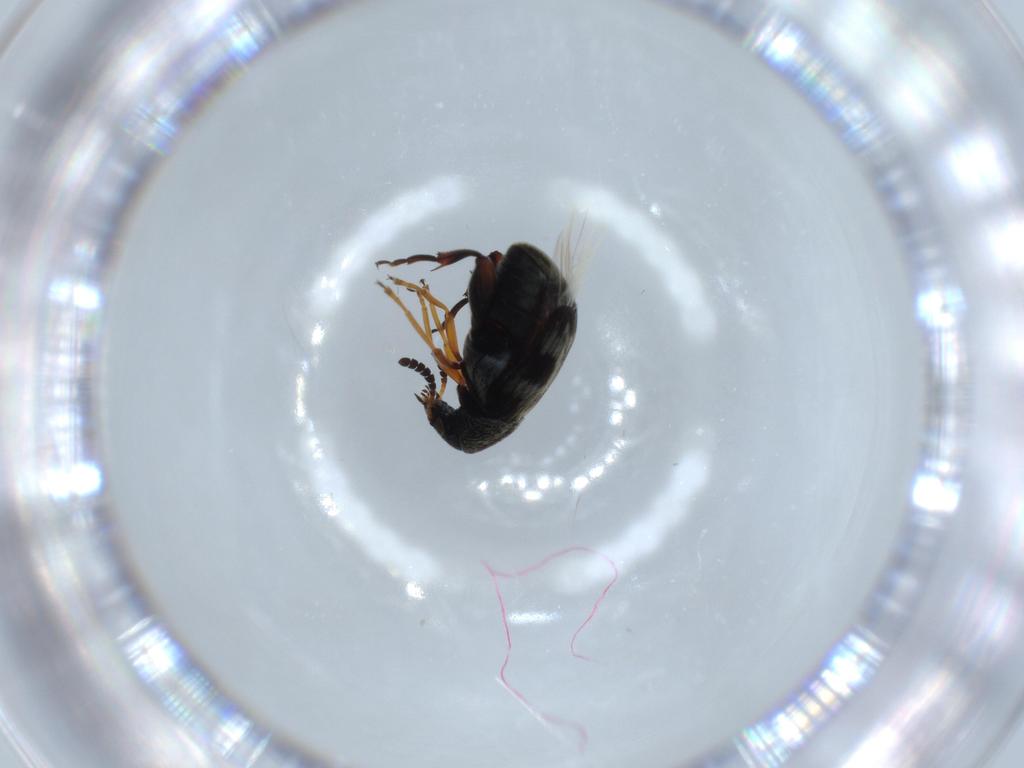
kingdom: Animalia
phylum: Arthropoda
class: Insecta
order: Coleoptera
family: Chrysomelidae
